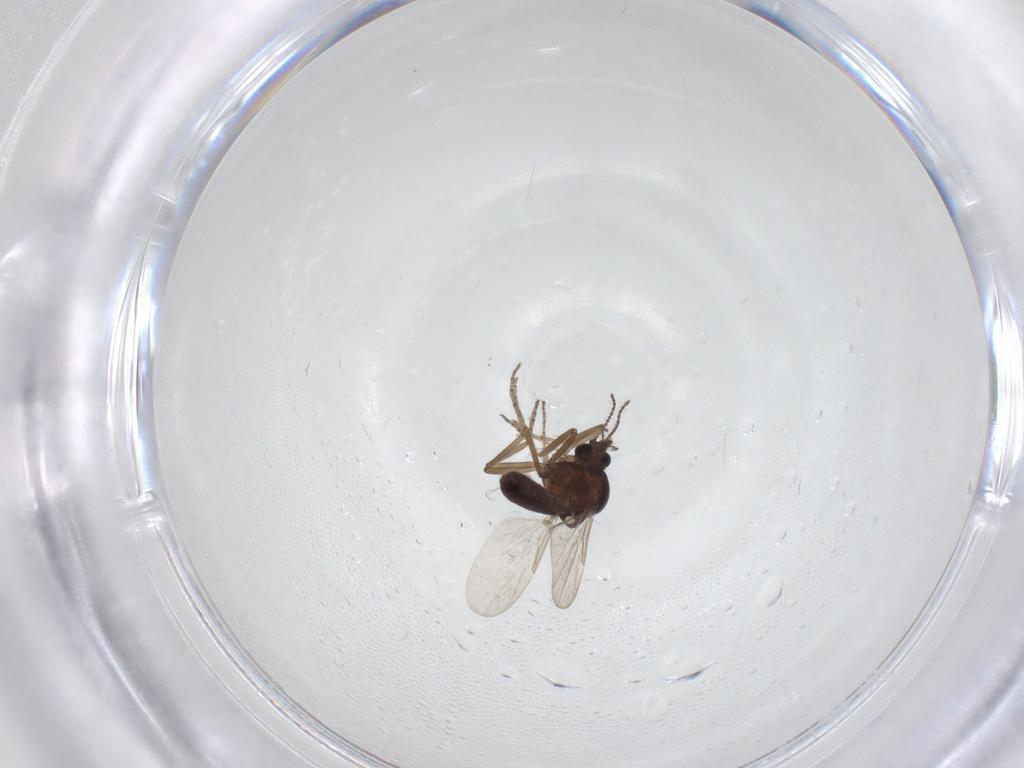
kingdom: Animalia
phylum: Arthropoda
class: Insecta
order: Diptera
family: Ceratopogonidae
